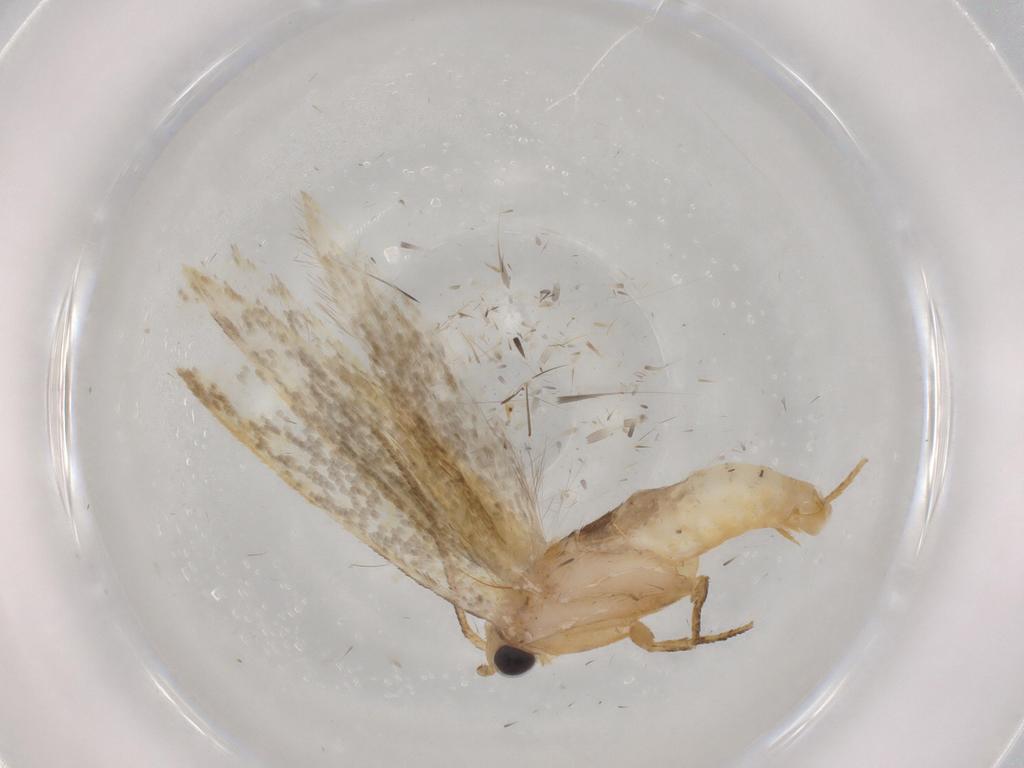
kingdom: Animalia
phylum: Arthropoda
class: Insecta
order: Lepidoptera
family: Tineidae
